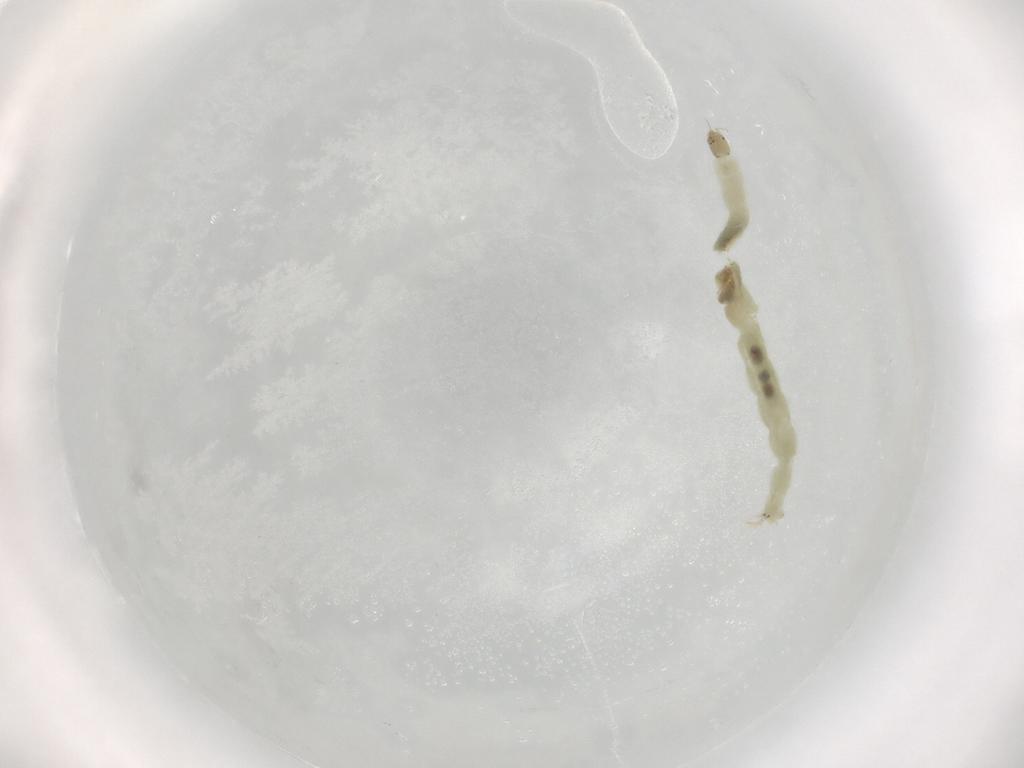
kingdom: Animalia
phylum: Arthropoda
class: Insecta
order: Diptera
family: Chironomidae
